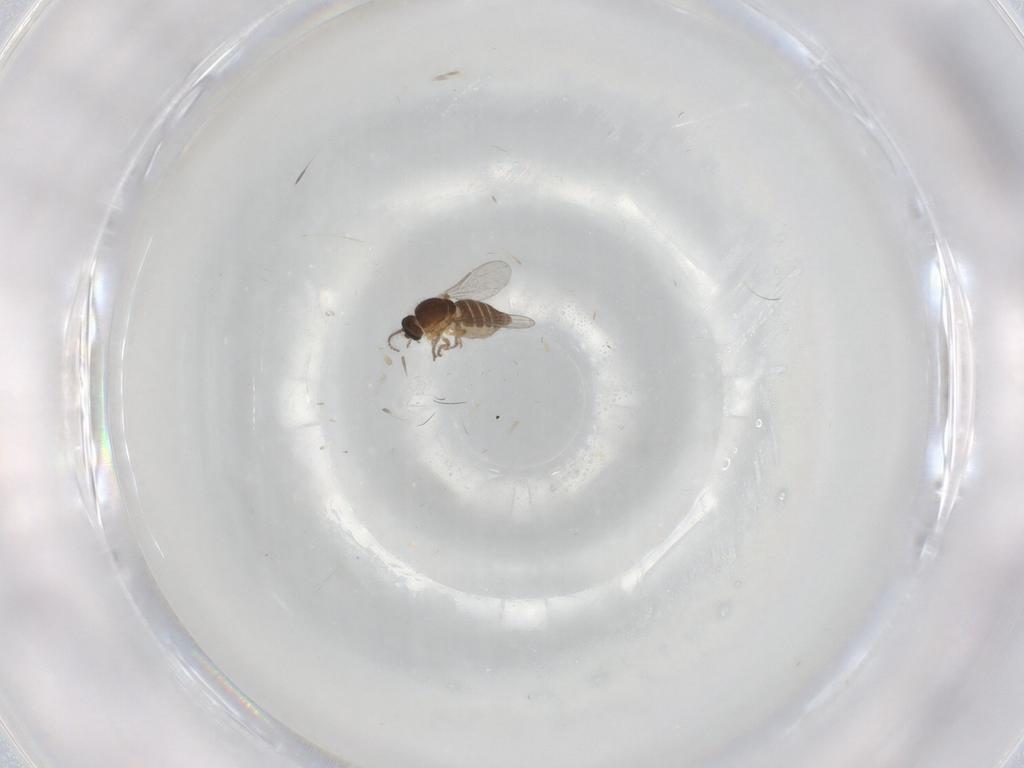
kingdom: Animalia
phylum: Arthropoda
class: Insecta
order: Diptera
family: Ceratopogonidae
